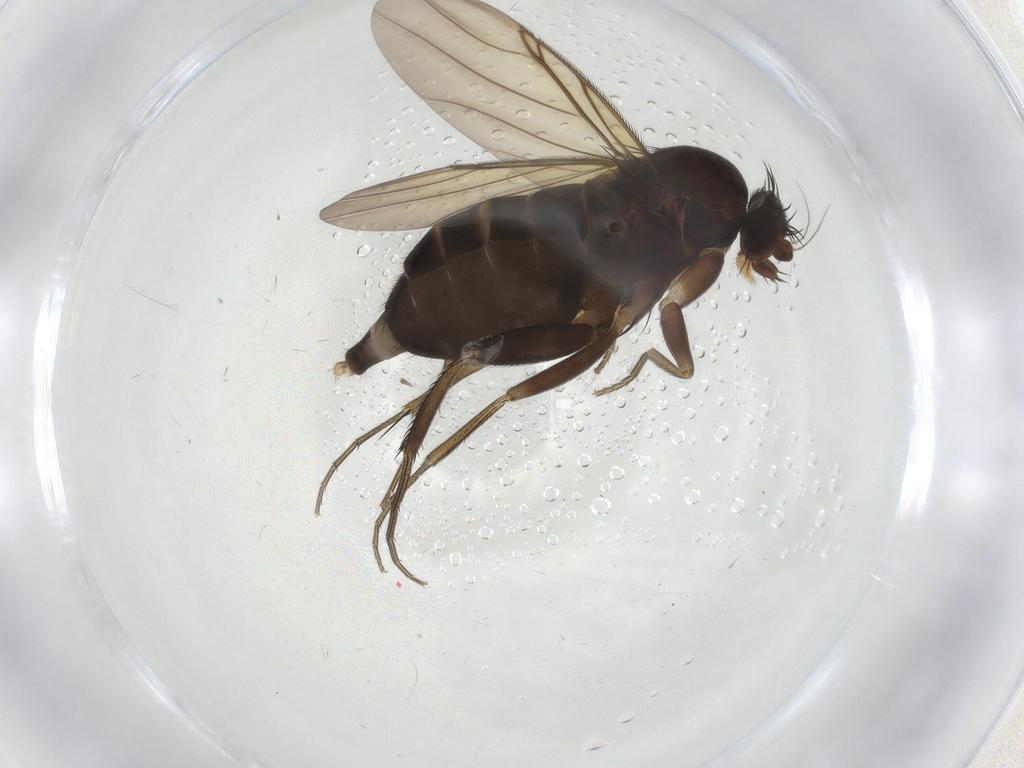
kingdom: Animalia
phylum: Arthropoda
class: Insecta
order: Diptera
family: Phoridae
